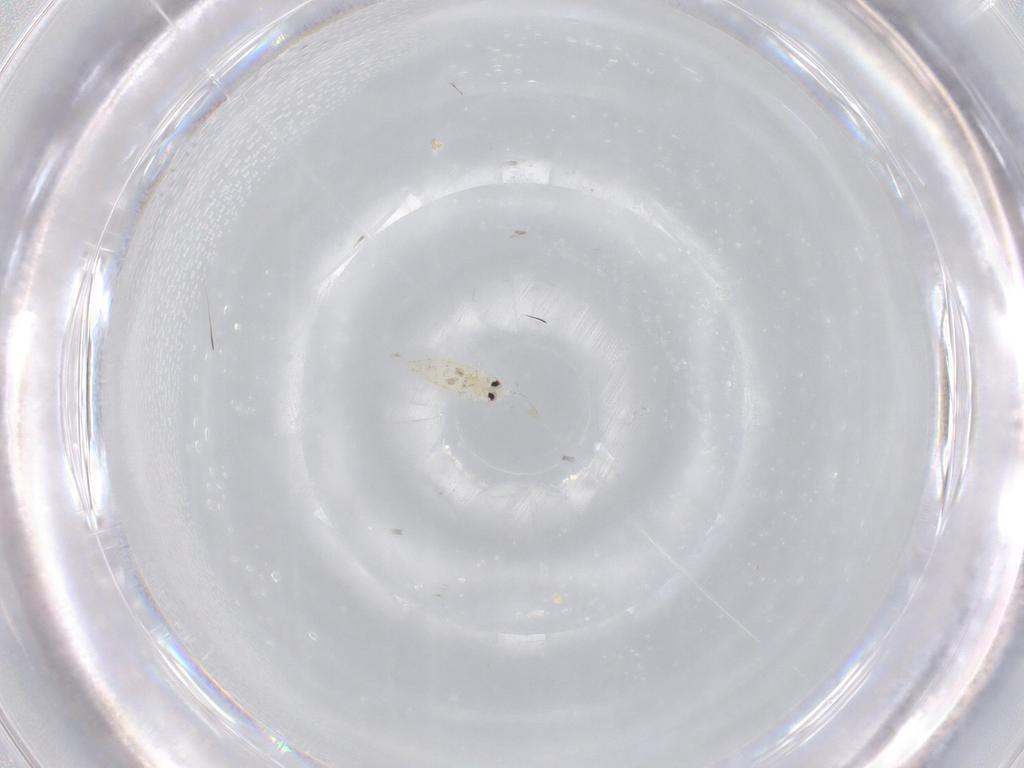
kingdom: Animalia
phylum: Arthropoda
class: Insecta
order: Hemiptera
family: Aleyrodidae
